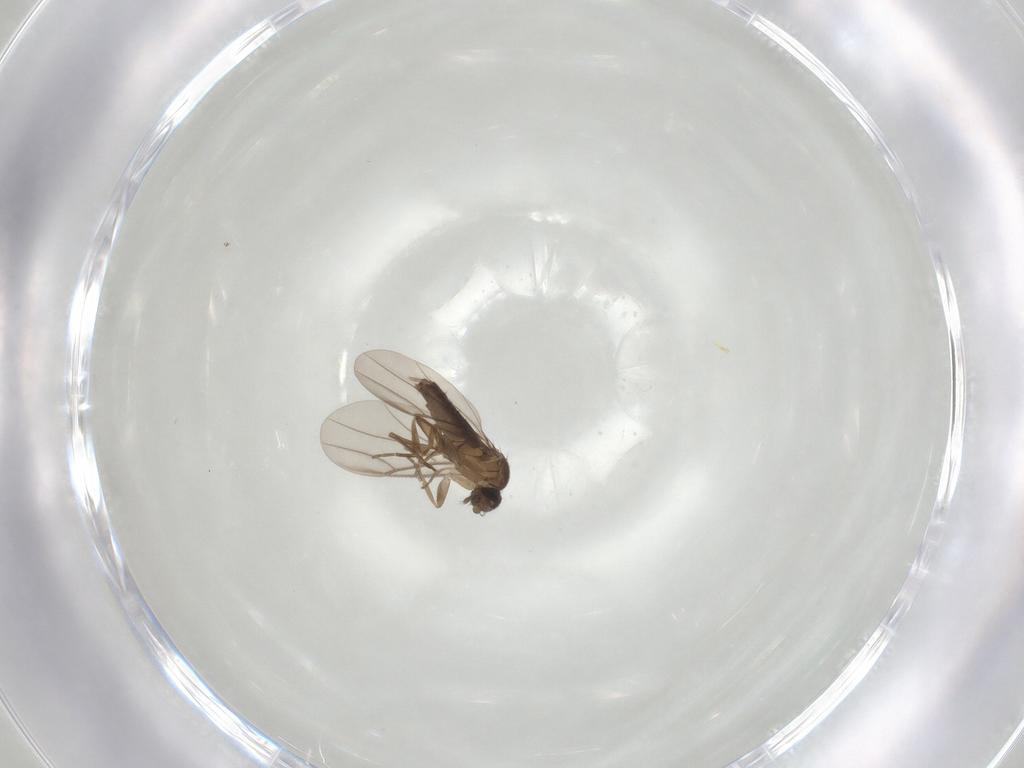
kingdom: Animalia
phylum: Arthropoda
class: Insecta
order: Diptera
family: Phoridae
